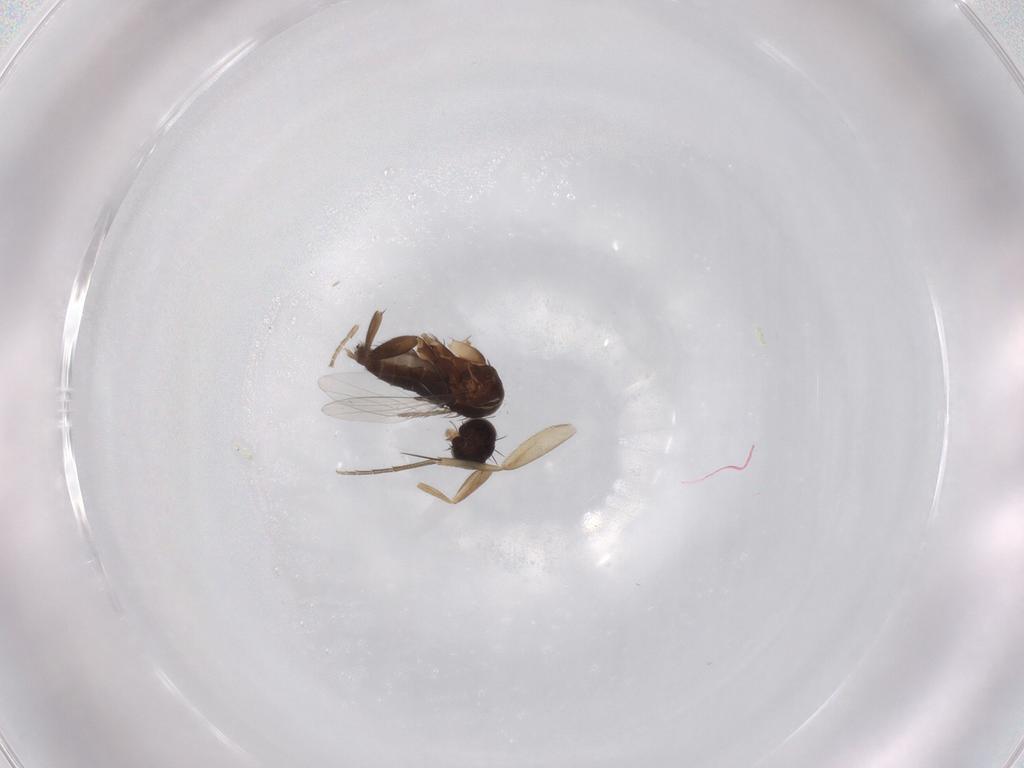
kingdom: Animalia
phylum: Arthropoda
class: Insecta
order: Diptera
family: Phoridae
